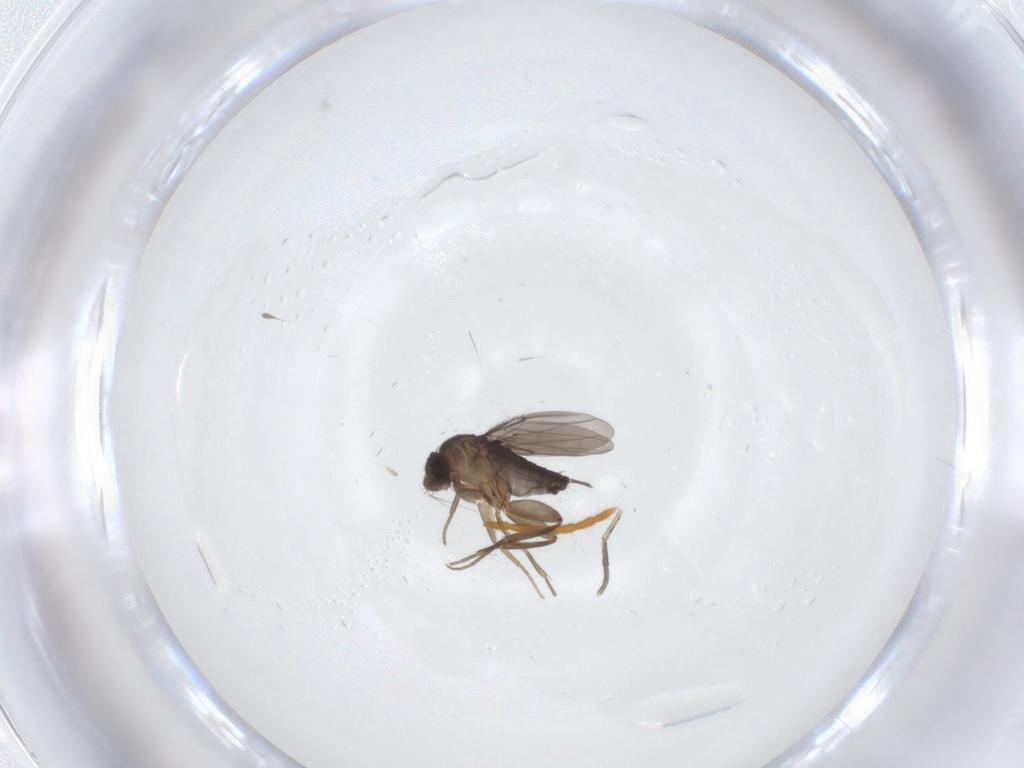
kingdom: Animalia
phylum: Arthropoda
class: Insecta
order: Diptera
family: Phoridae
